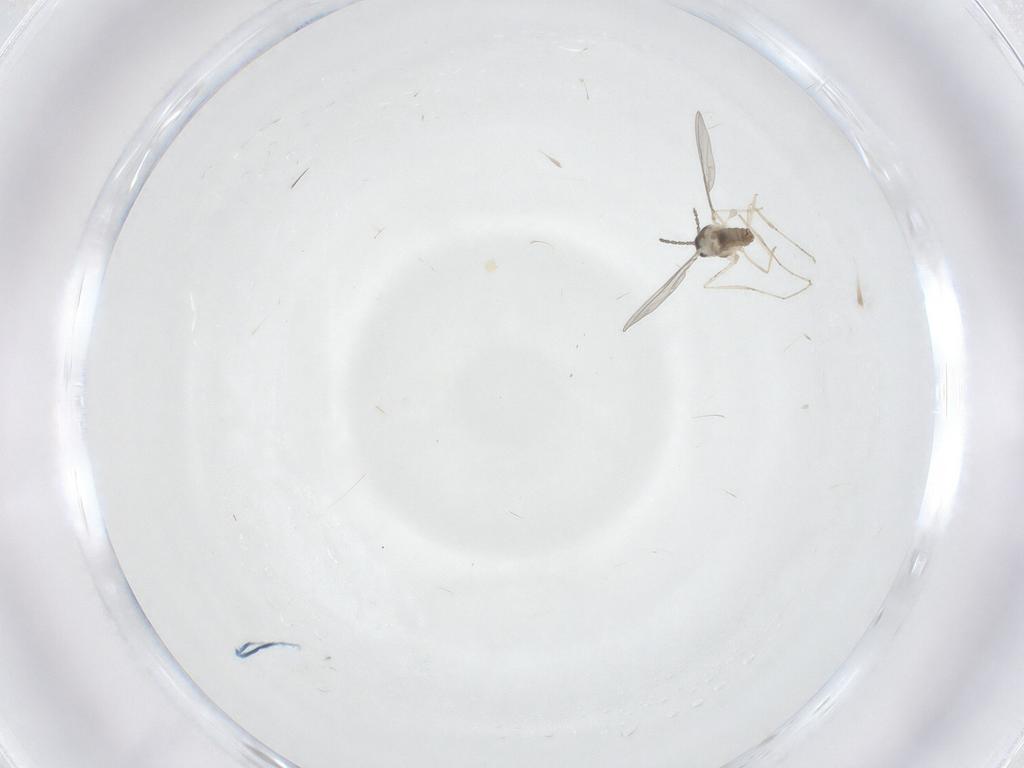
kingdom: Animalia
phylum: Arthropoda
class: Insecta
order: Diptera
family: Cecidomyiidae
